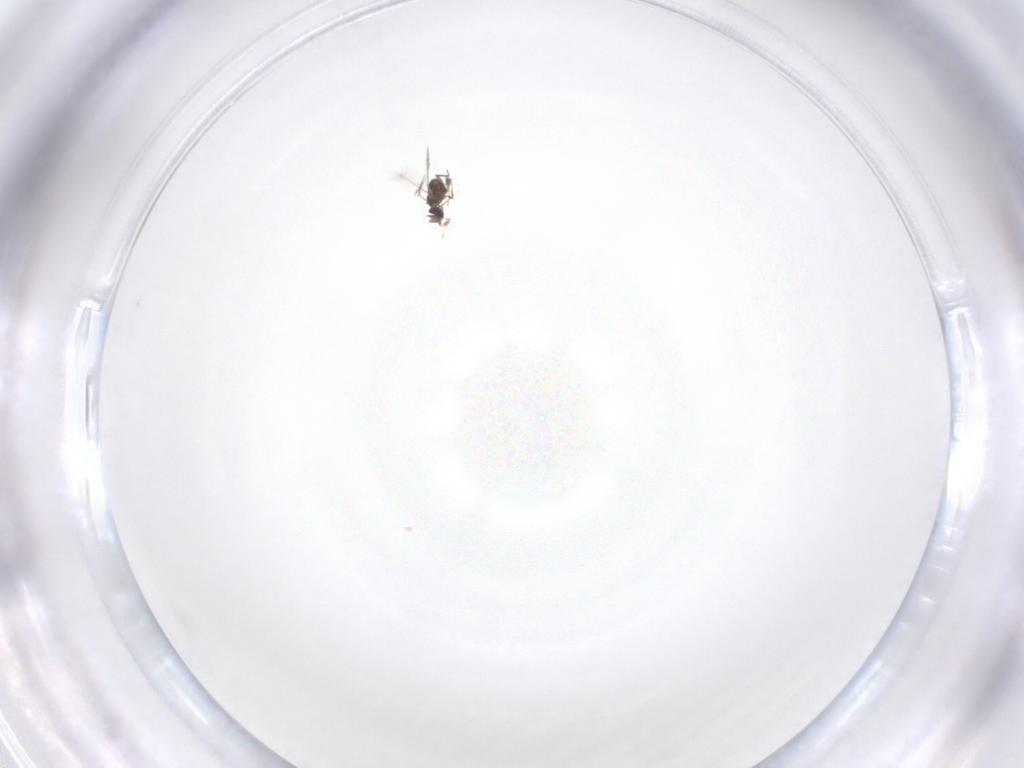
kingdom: Animalia
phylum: Arthropoda
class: Insecta
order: Hymenoptera
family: Mymaridae
